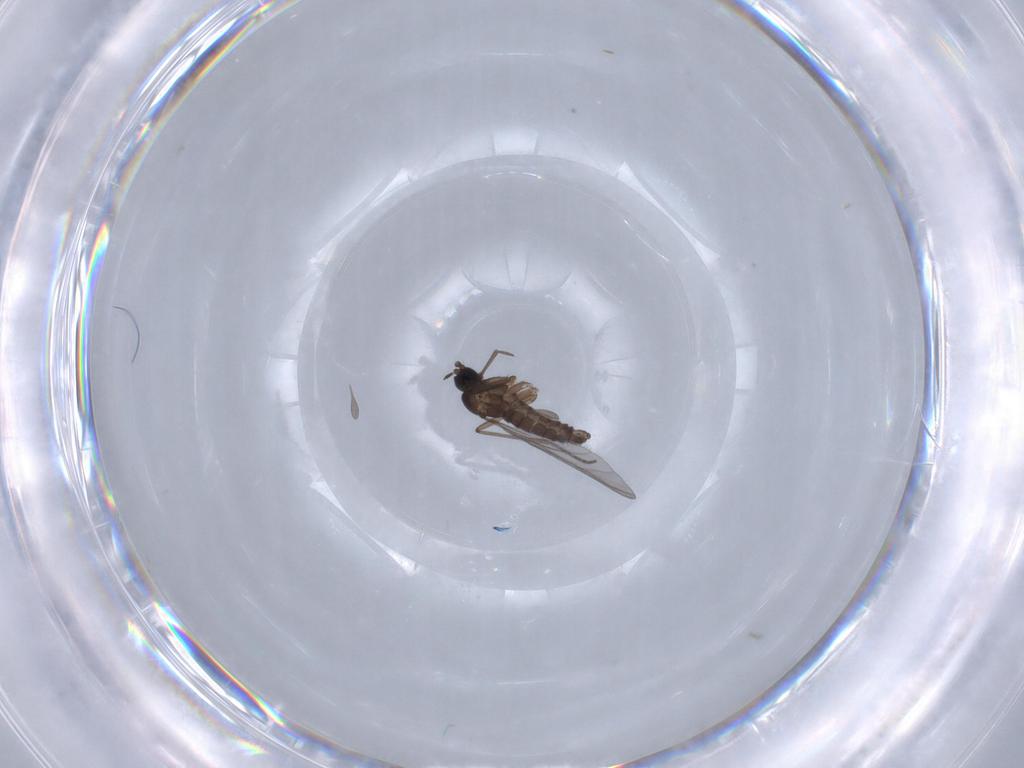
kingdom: Animalia
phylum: Arthropoda
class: Insecta
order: Diptera
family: Sciaridae
